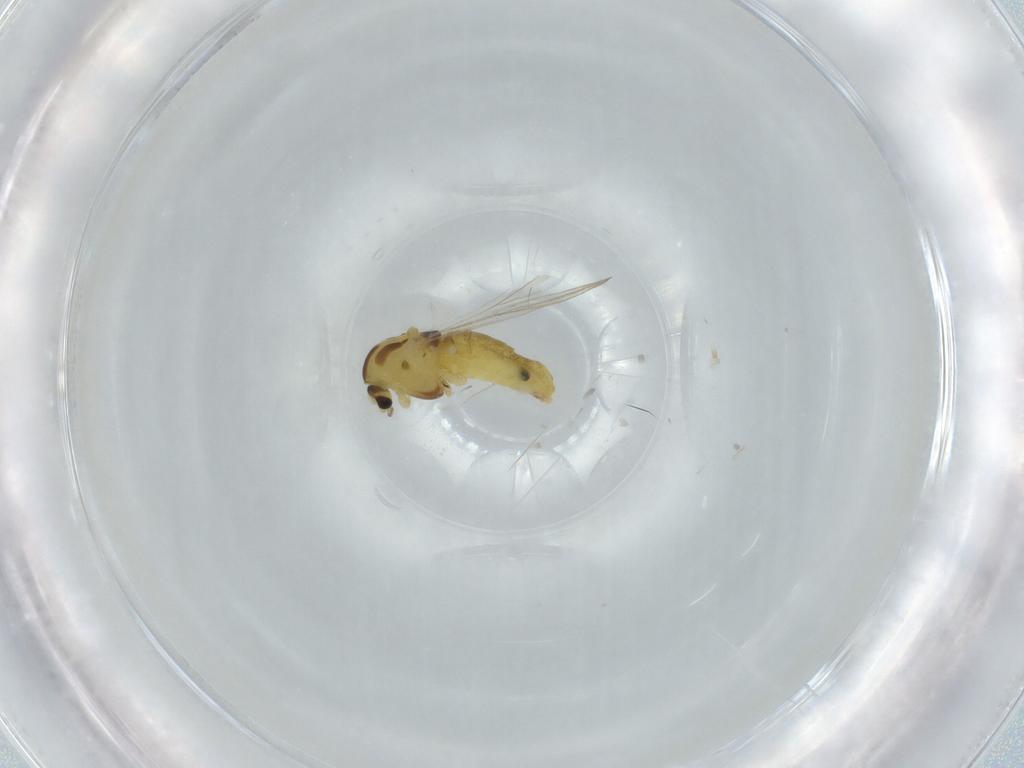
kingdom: Animalia
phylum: Arthropoda
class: Insecta
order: Diptera
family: Chironomidae
